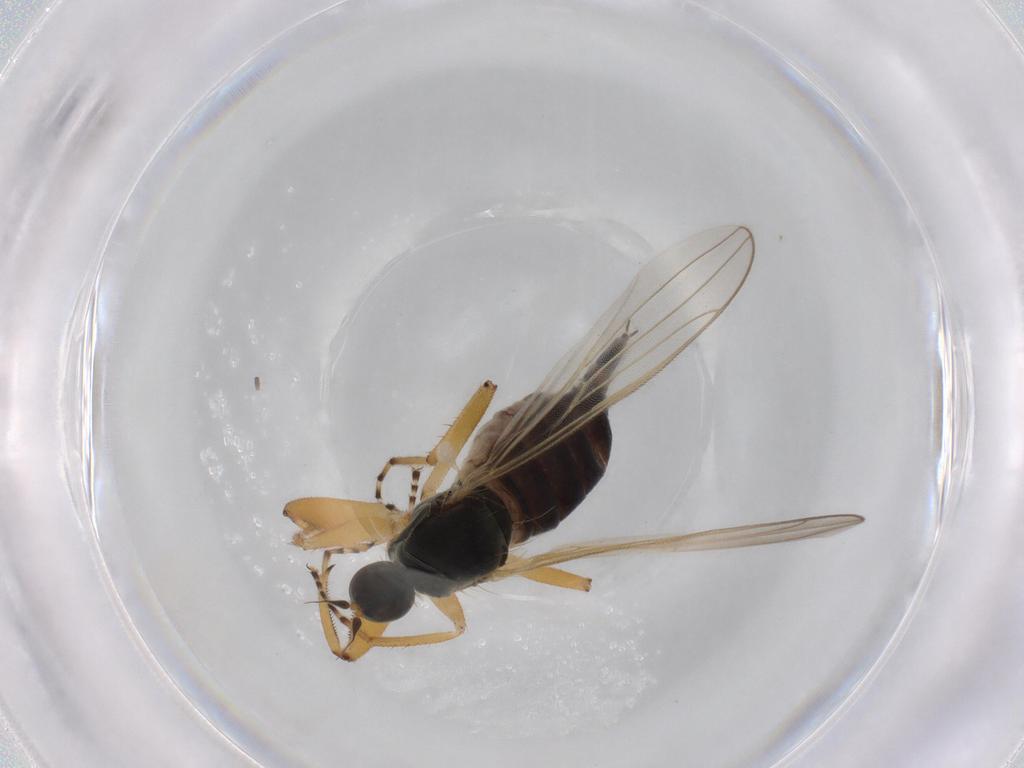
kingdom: Animalia
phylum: Arthropoda
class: Insecta
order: Diptera
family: Hybotidae
